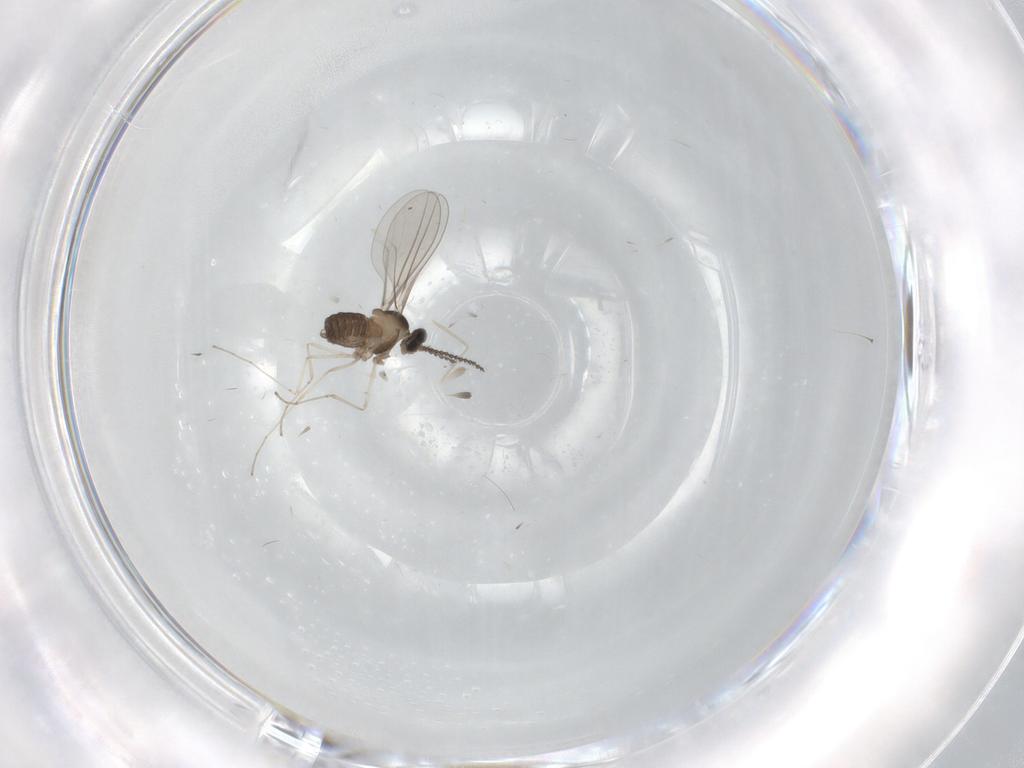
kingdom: Animalia
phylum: Arthropoda
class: Insecta
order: Diptera
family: Cecidomyiidae
